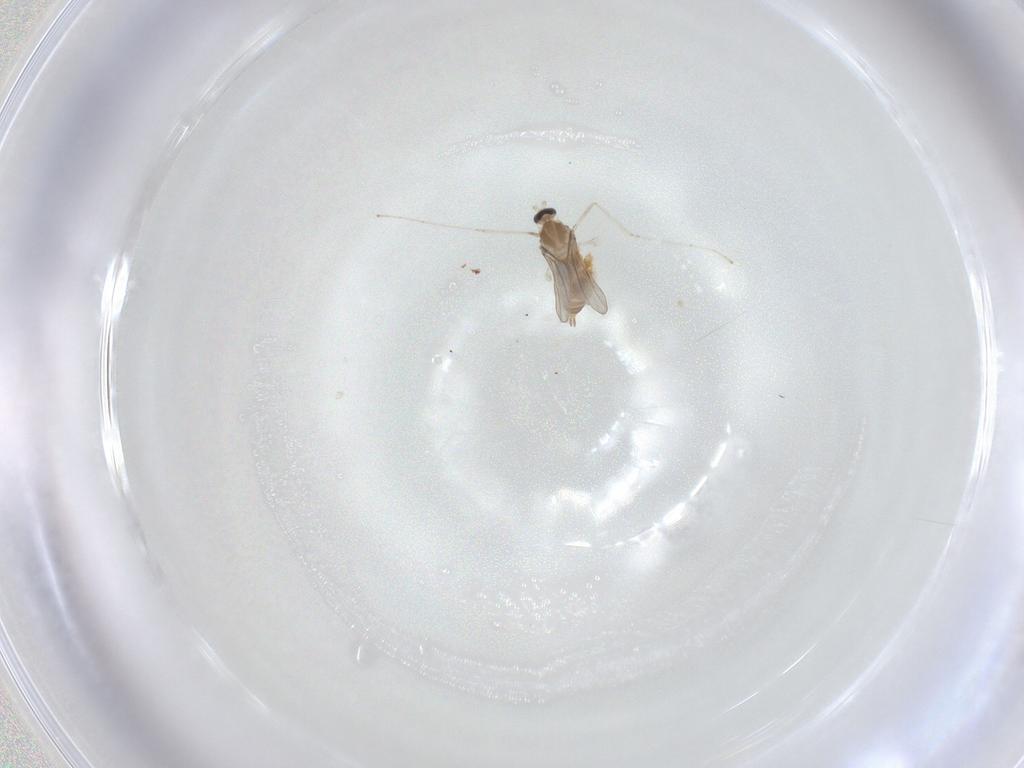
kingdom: Animalia
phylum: Arthropoda
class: Insecta
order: Diptera
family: Cecidomyiidae
